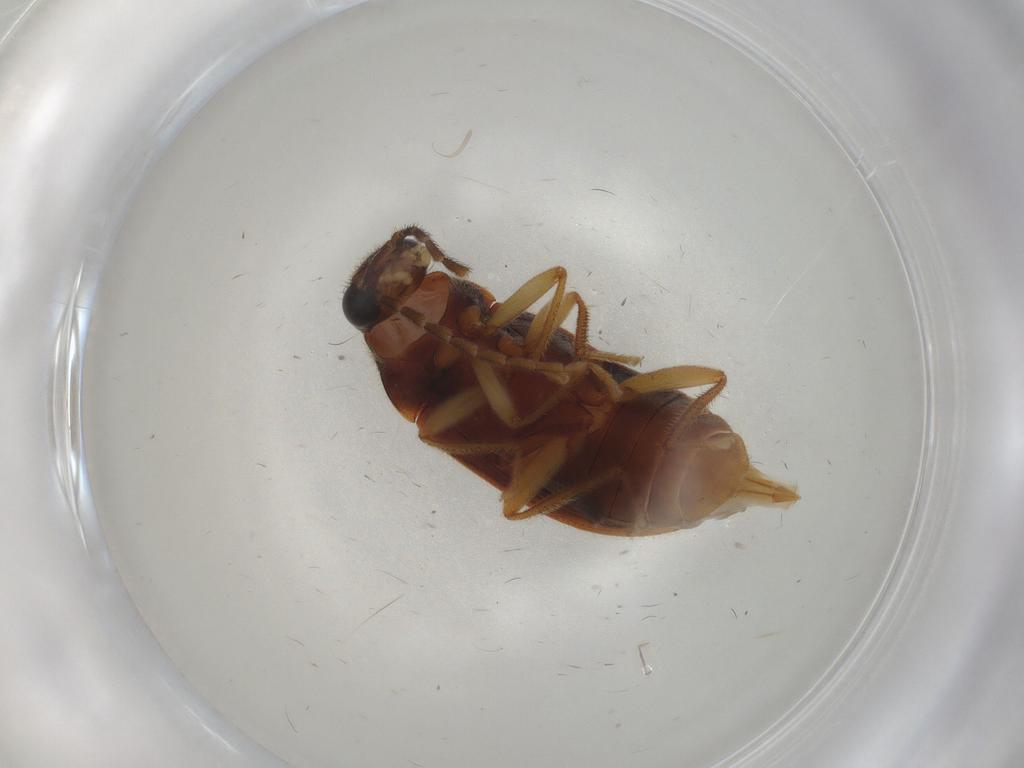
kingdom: Animalia
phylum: Arthropoda
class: Insecta
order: Coleoptera
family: Ptilodactylidae
